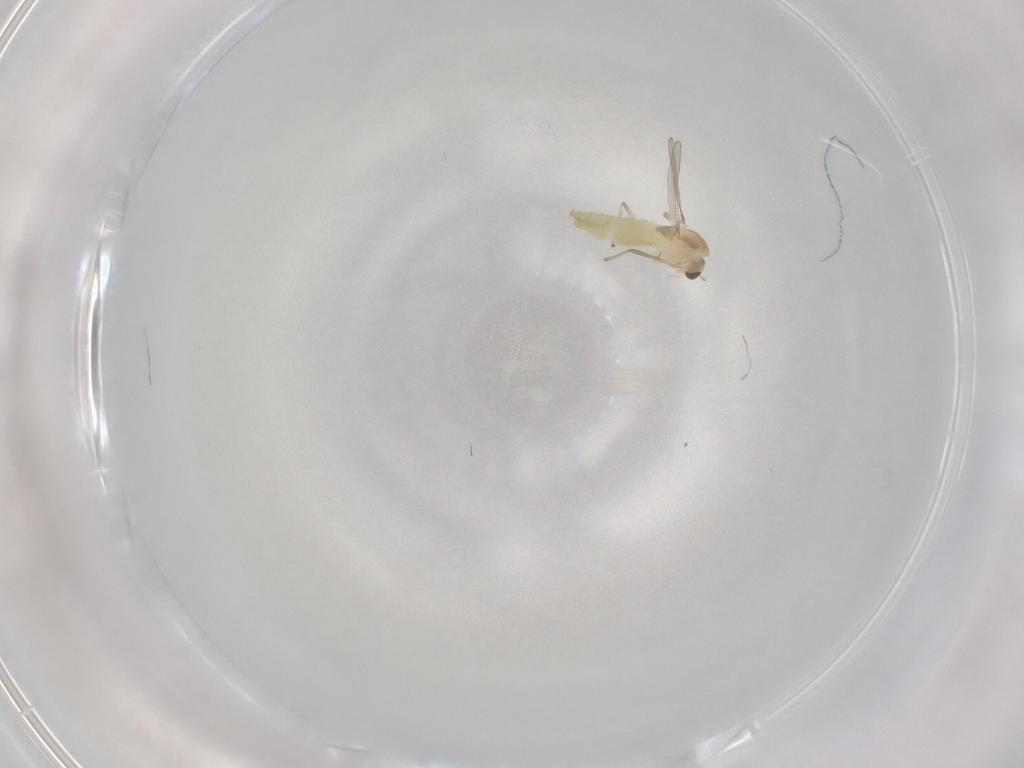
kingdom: Animalia
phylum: Arthropoda
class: Insecta
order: Diptera
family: Chironomidae
